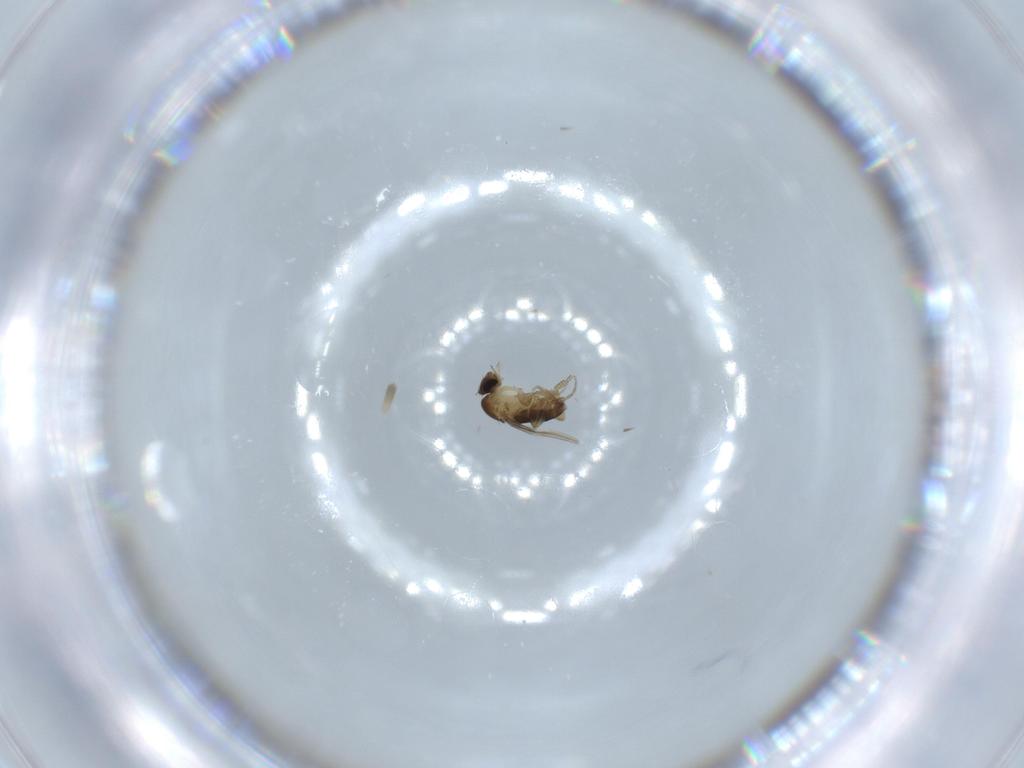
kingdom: Animalia
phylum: Arthropoda
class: Insecta
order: Diptera
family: Phoridae
